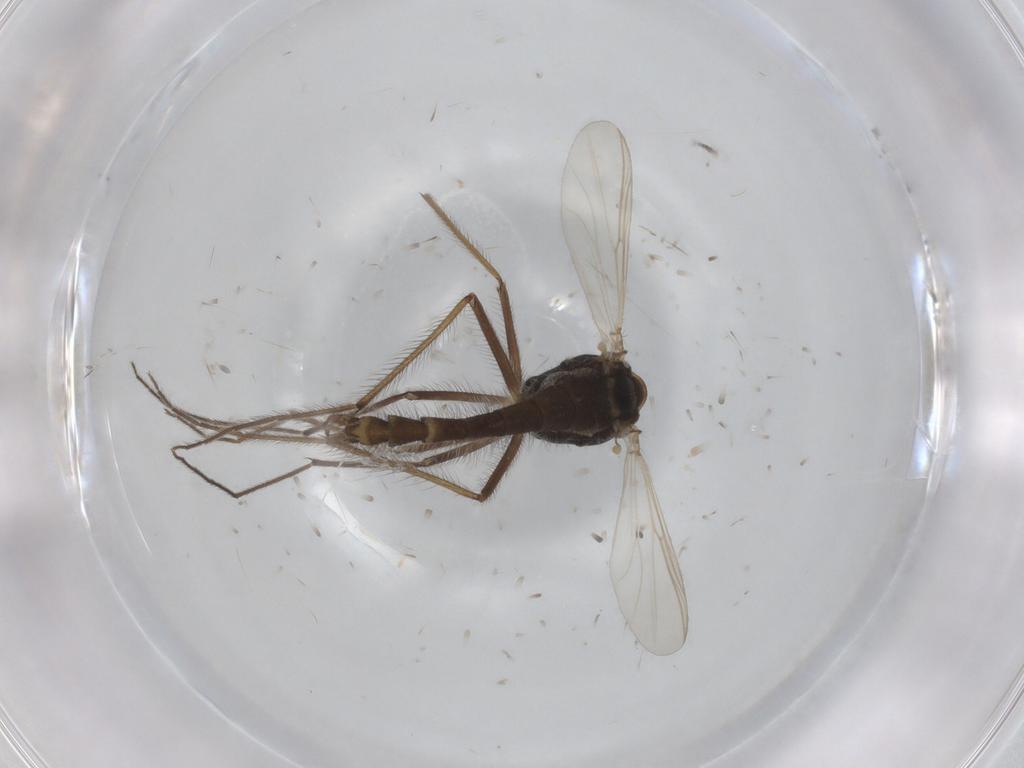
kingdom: Animalia
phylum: Arthropoda
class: Insecta
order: Diptera
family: Chironomidae
